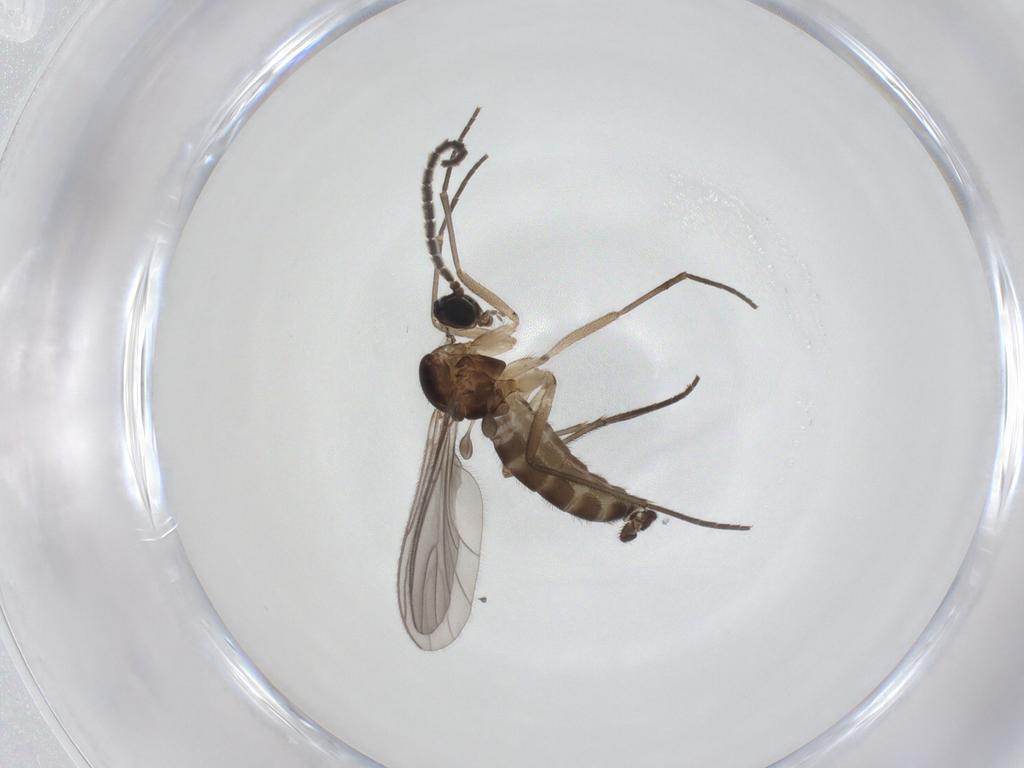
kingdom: Animalia
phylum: Arthropoda
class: Insecta
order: Diptera
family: Sciaridae
